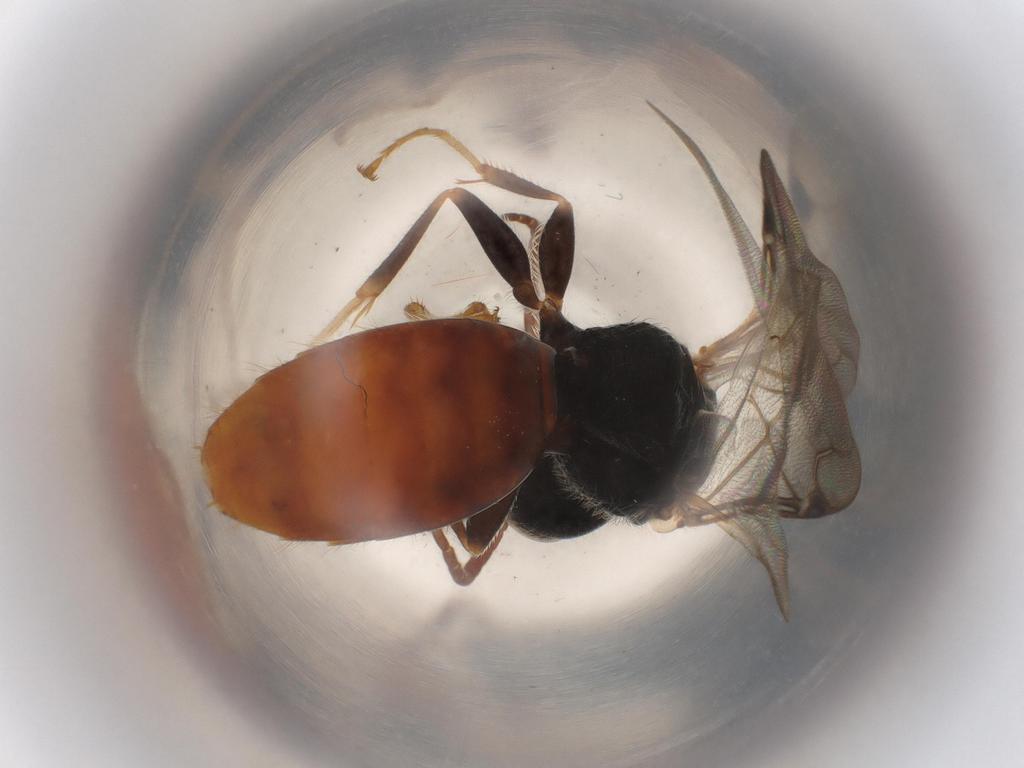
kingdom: Animalia
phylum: Arthropoda
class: Insecta
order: Hymenoptera
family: Bethylidae
